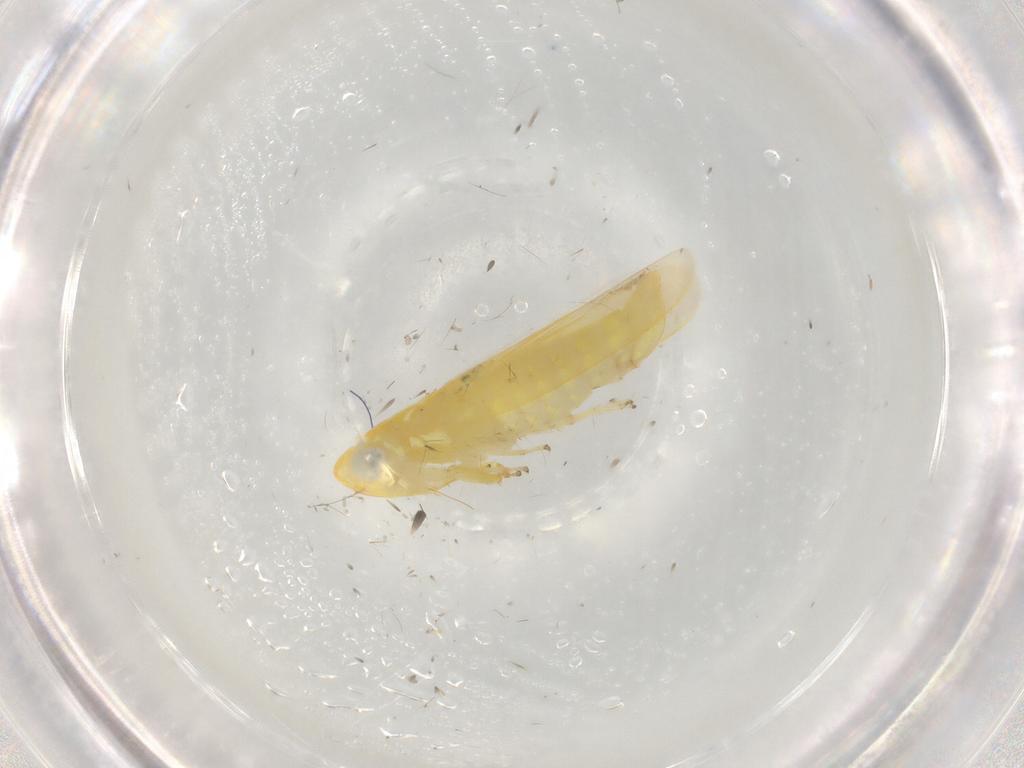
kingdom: Animalia
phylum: Arthropoda
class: Insecta
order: Hemiptera
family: Cicadellidae
